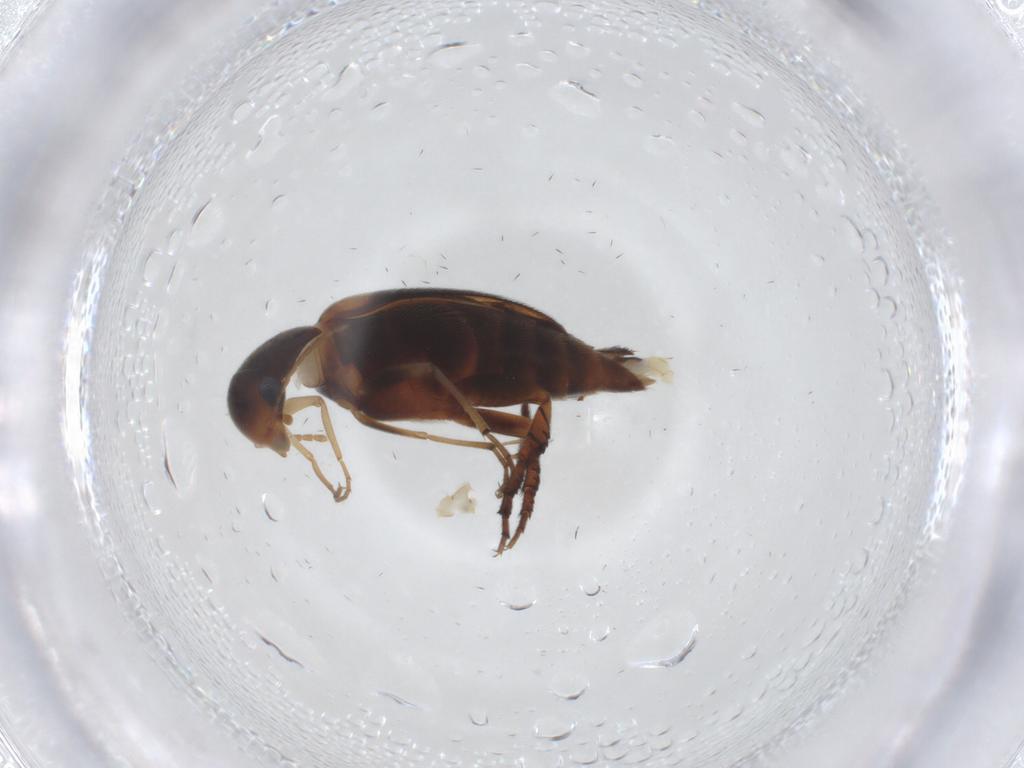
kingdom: Animalia
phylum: Arthropoda
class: Insecta
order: Coleoptera
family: Mordellidae
